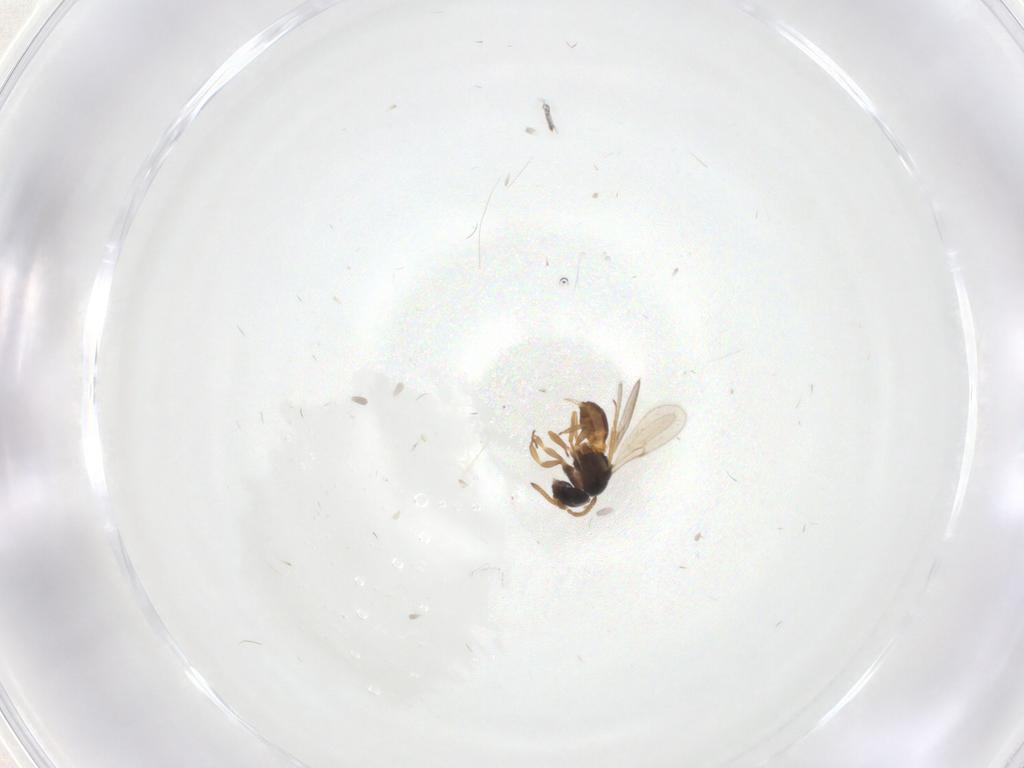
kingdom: Animalia
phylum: Arthropoda
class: Insecta
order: Hymenoptera
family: Scelionidae
